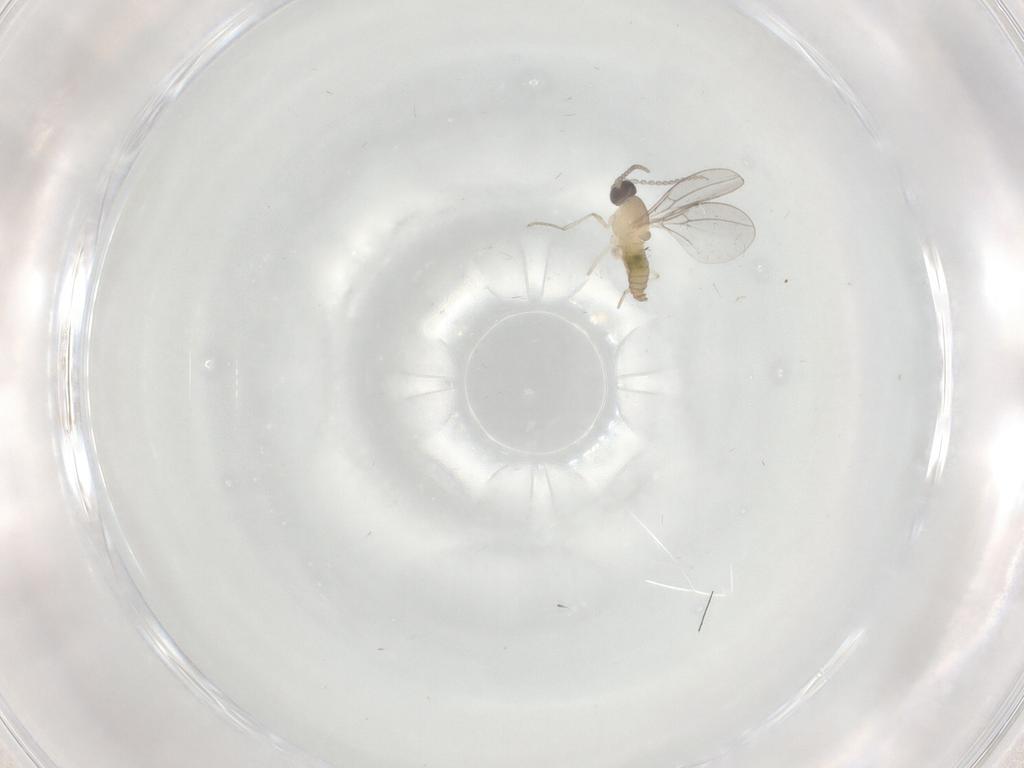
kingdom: Animalia
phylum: Arthropoda
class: Insecta
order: Diptera
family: Cecidomyiidae
